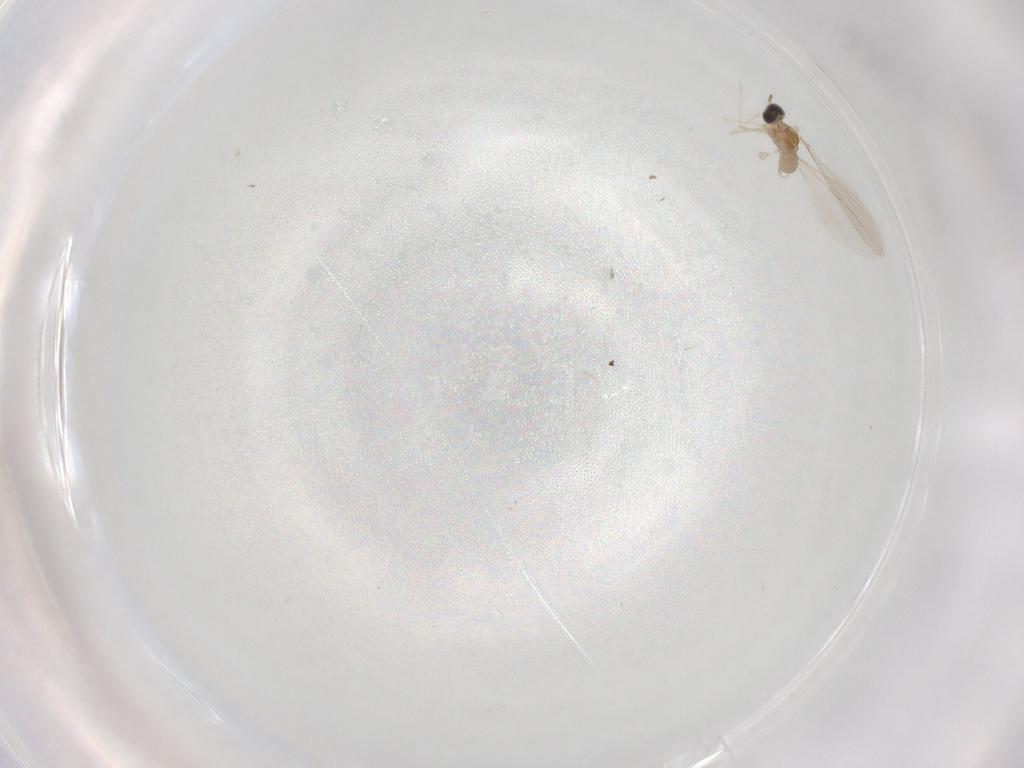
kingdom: Animalia
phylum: Arthropoda
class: Insecta
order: Diptera
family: Cecidomyiidae
